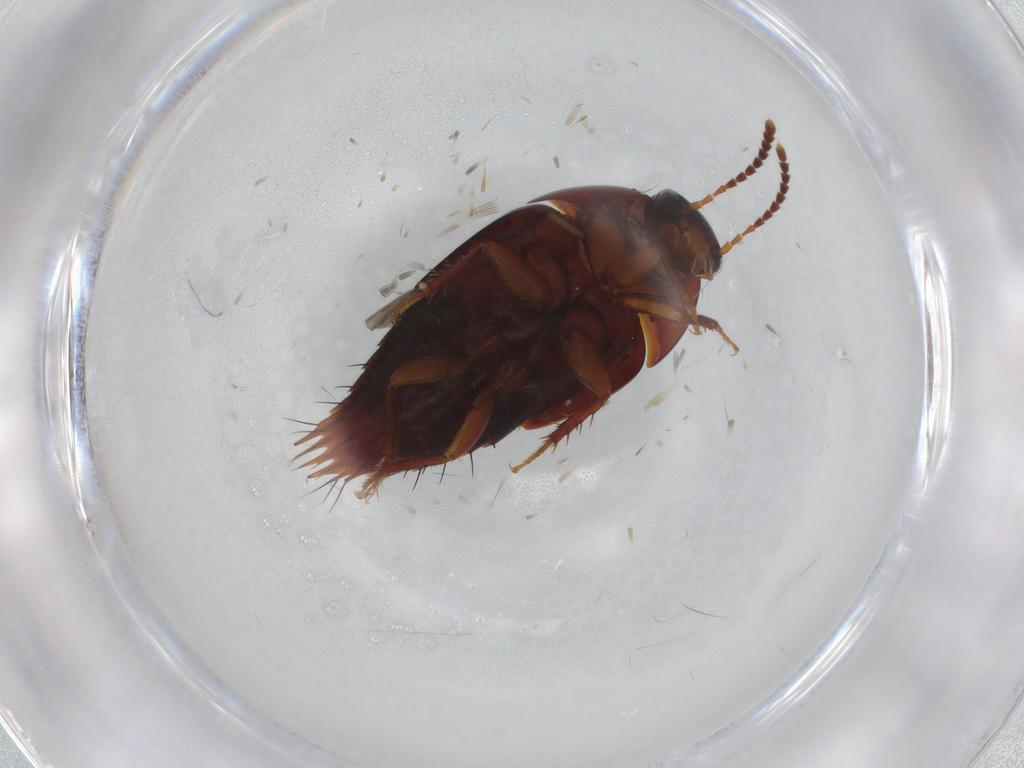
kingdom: Animalia
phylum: Arthropoda
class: Insecta
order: Coleoptera
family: Staphylinidae
